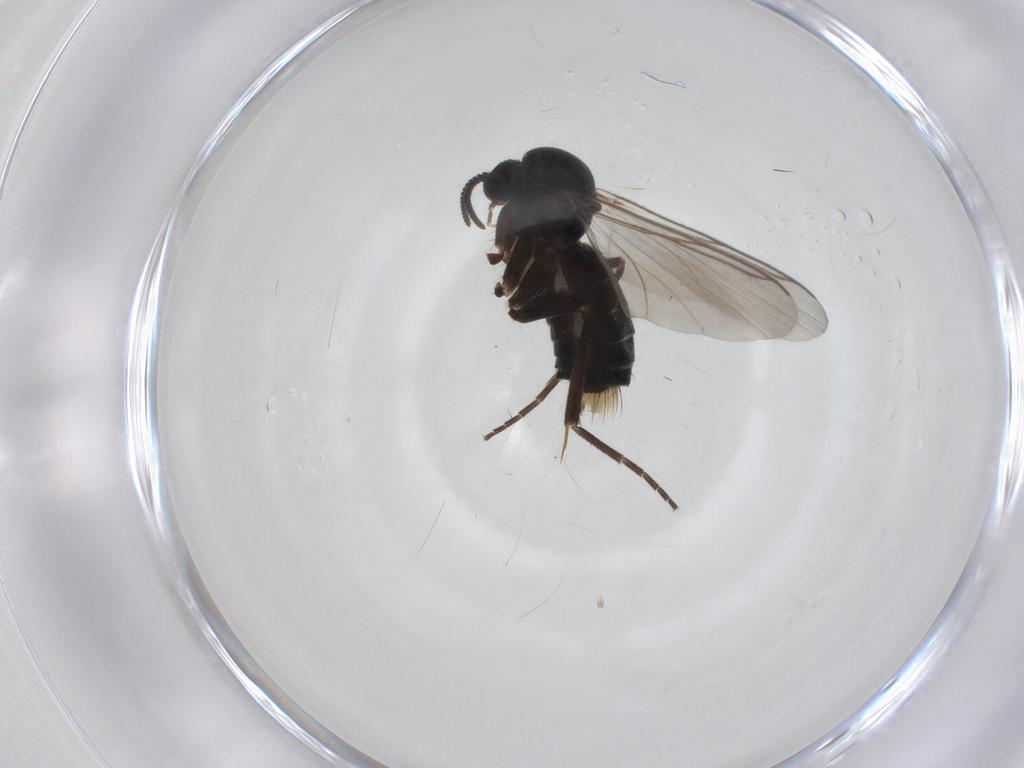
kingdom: Animalia
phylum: Arthropoda
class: Insecta
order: Diptera
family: Mycetophilidae
